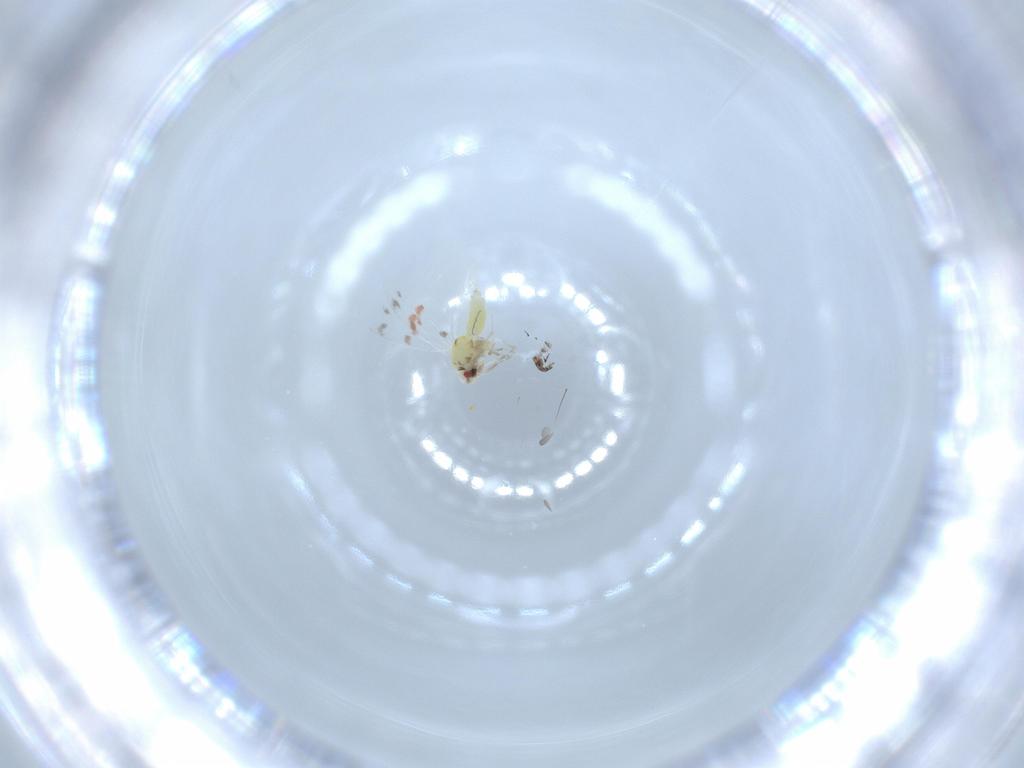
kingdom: Animalia
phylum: Arthropoda
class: Insecta
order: Hemiptera
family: Aleyrodidae
